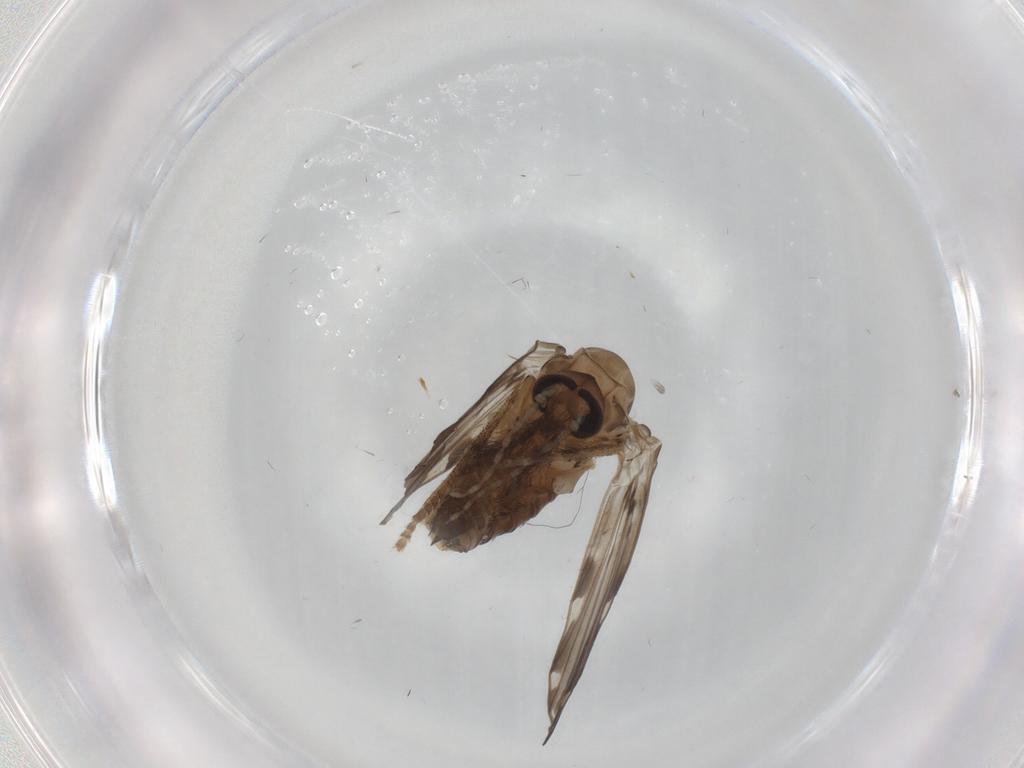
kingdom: Animalia
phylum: Arthropoda
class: Insecta
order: Diptera
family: Psychodidae
